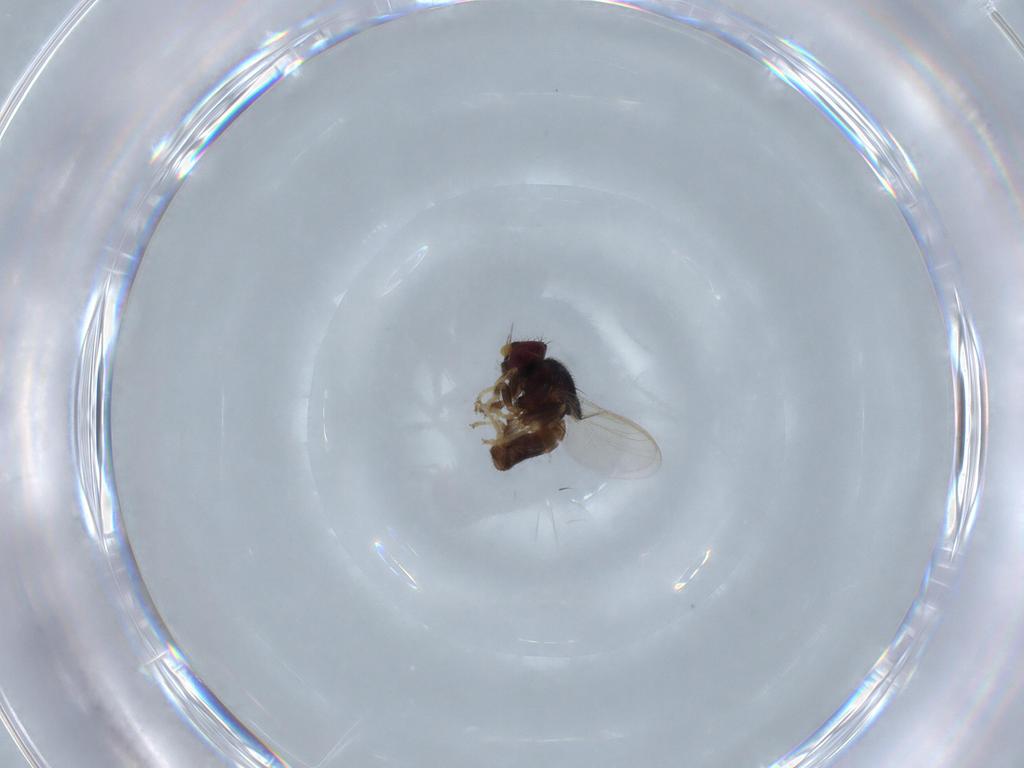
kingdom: Animalia
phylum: Arthropoda
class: Insecta
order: Diptera
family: Chloropidae
